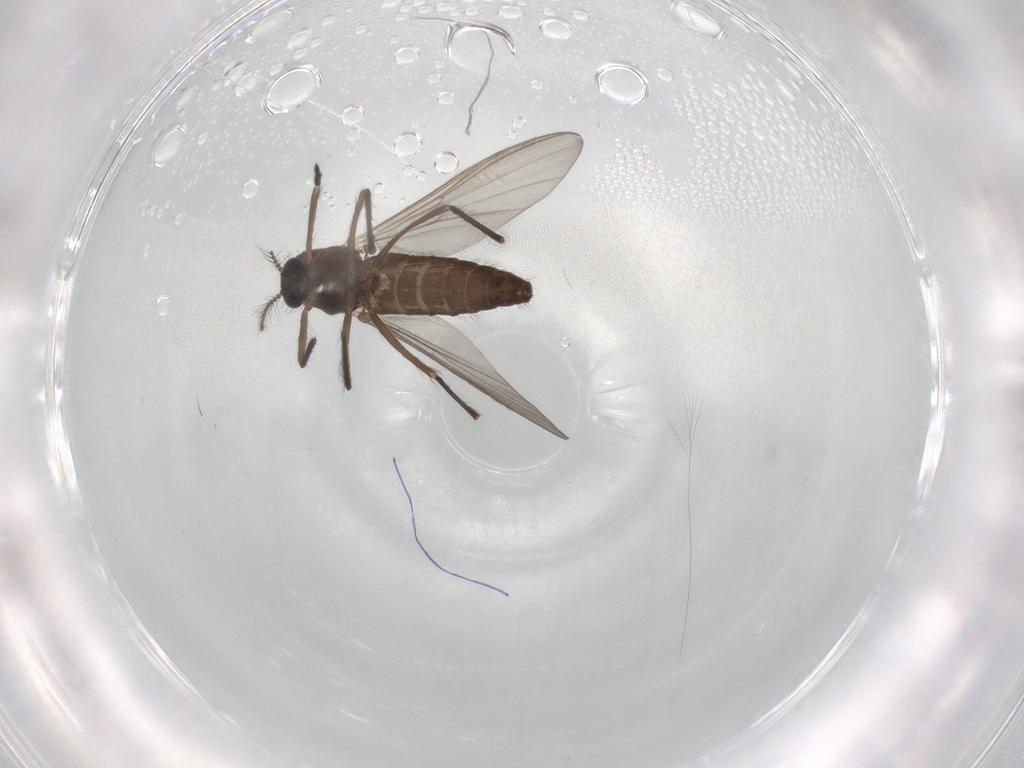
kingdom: Animalia
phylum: Arthropoda
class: Insecta
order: Diptera
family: Chironomidae
